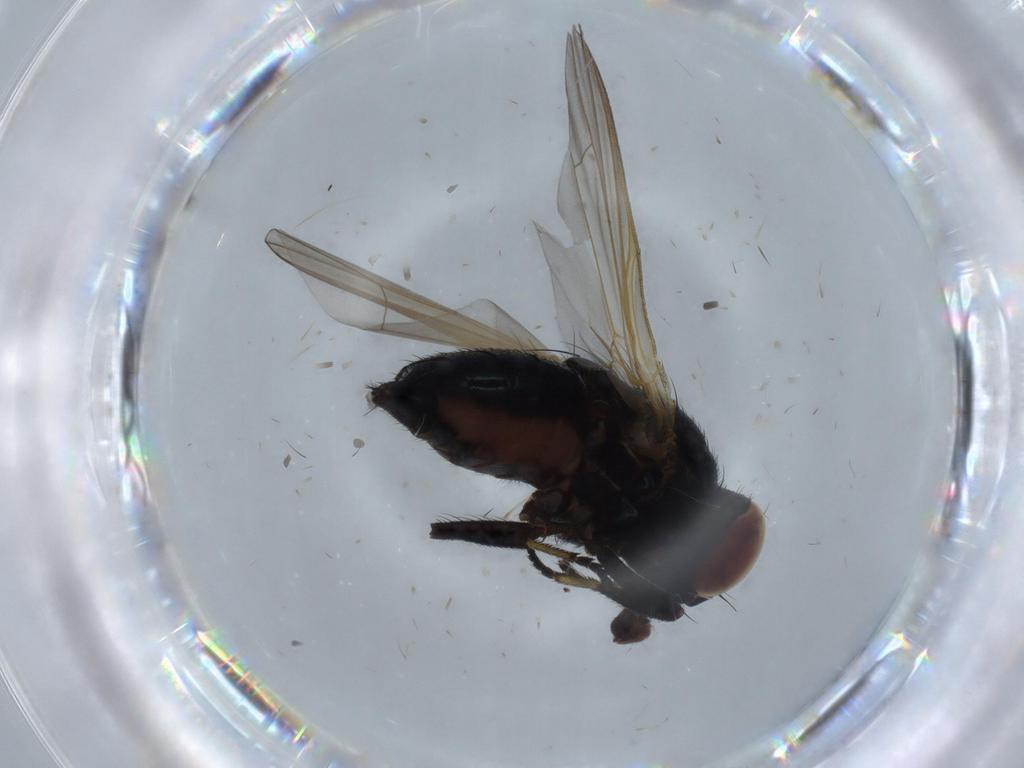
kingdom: Animalia
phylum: Arthropoda
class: Insecta
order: Diptera
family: Lonchaeidae
